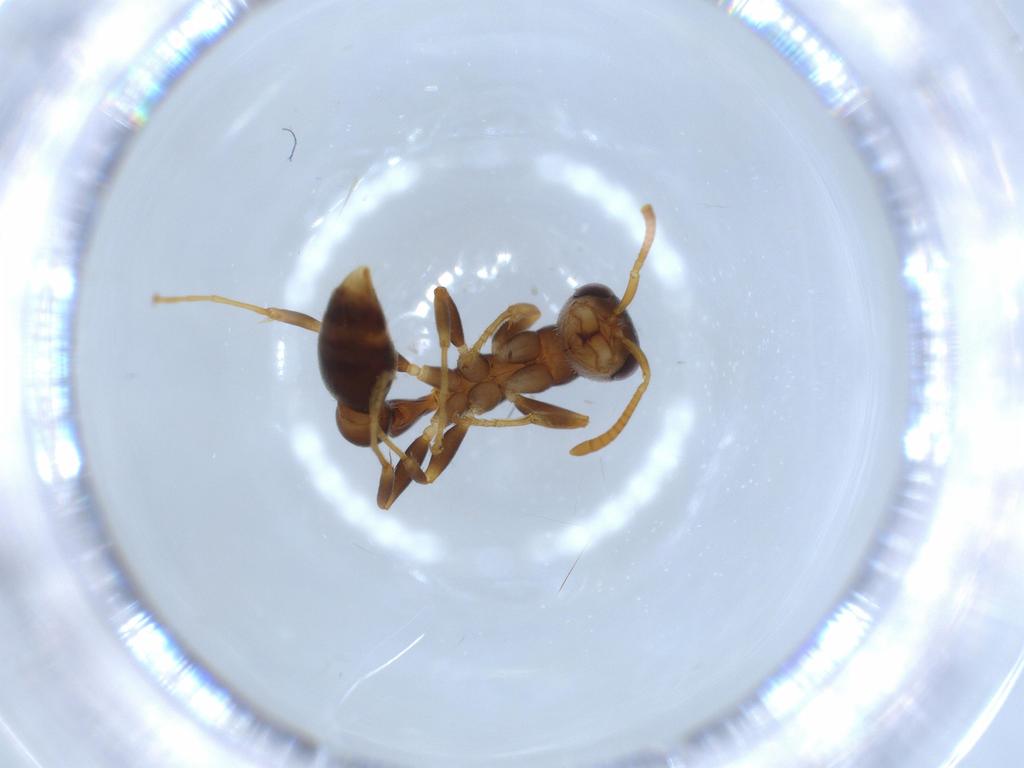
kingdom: Animalia
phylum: Arthropoda
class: Insecta
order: Hymenoptera
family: Formicidae
